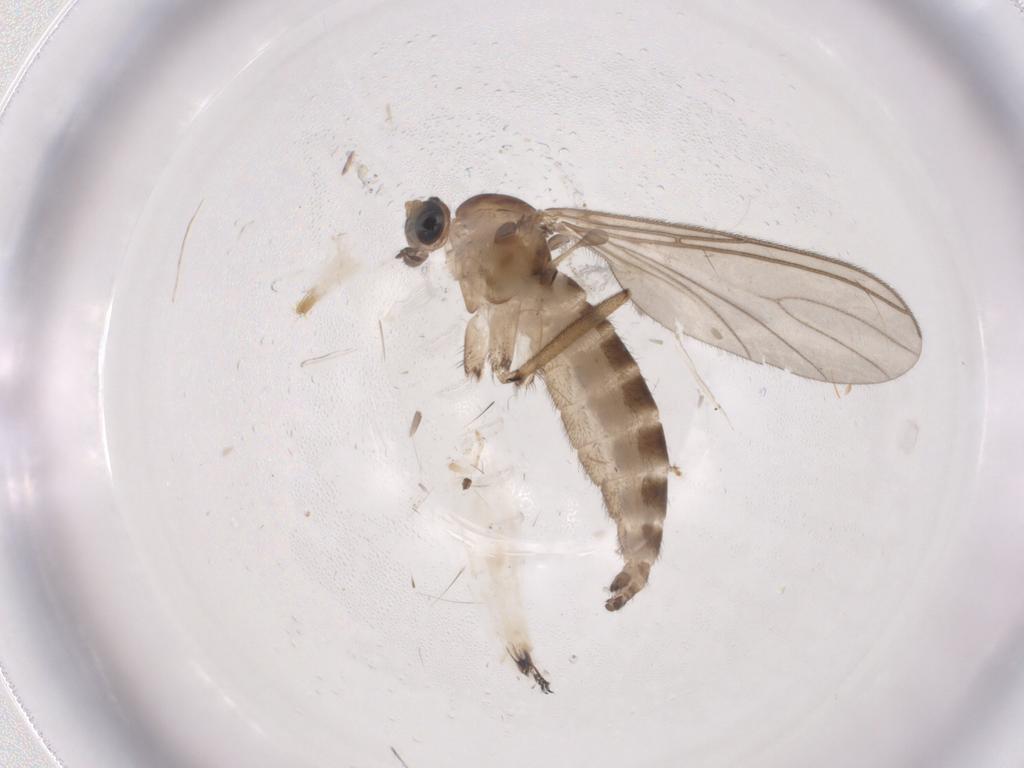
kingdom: Animalia
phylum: Arthropoda
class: Insecta
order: Diptera
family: Sciaridae
